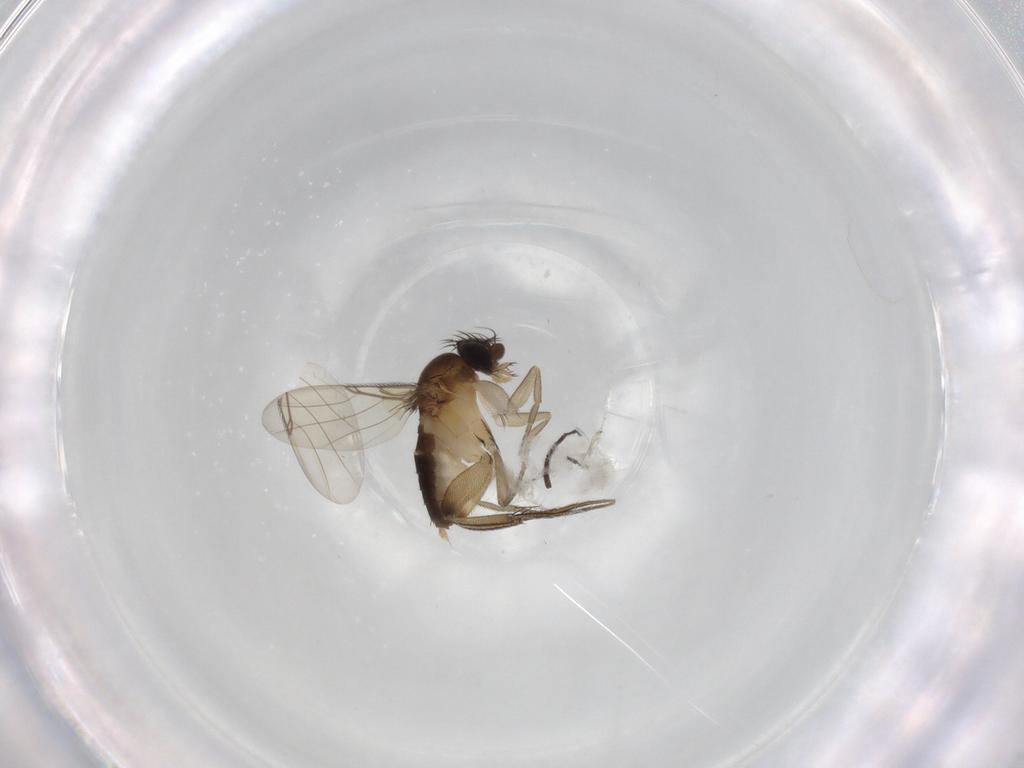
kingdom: Animalia
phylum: Arthropoda
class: Insecta
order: Diptera
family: Phoridae
